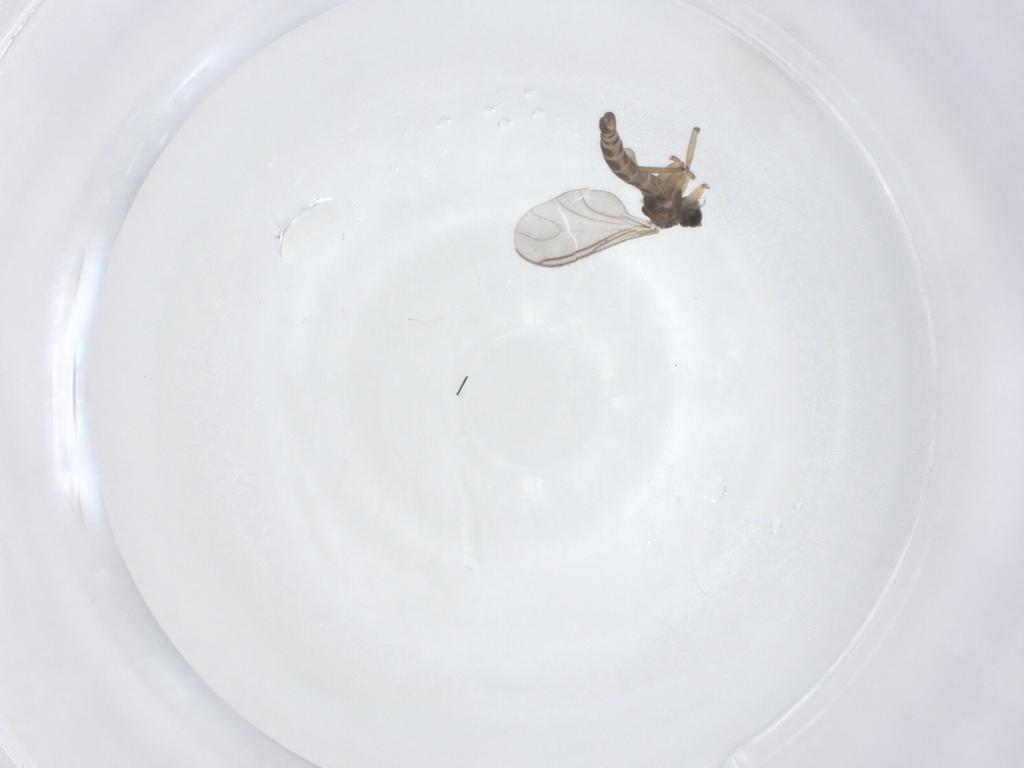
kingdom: Animalia
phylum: Arthropoda
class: Insecta
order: Diptera
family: Sciaridae
